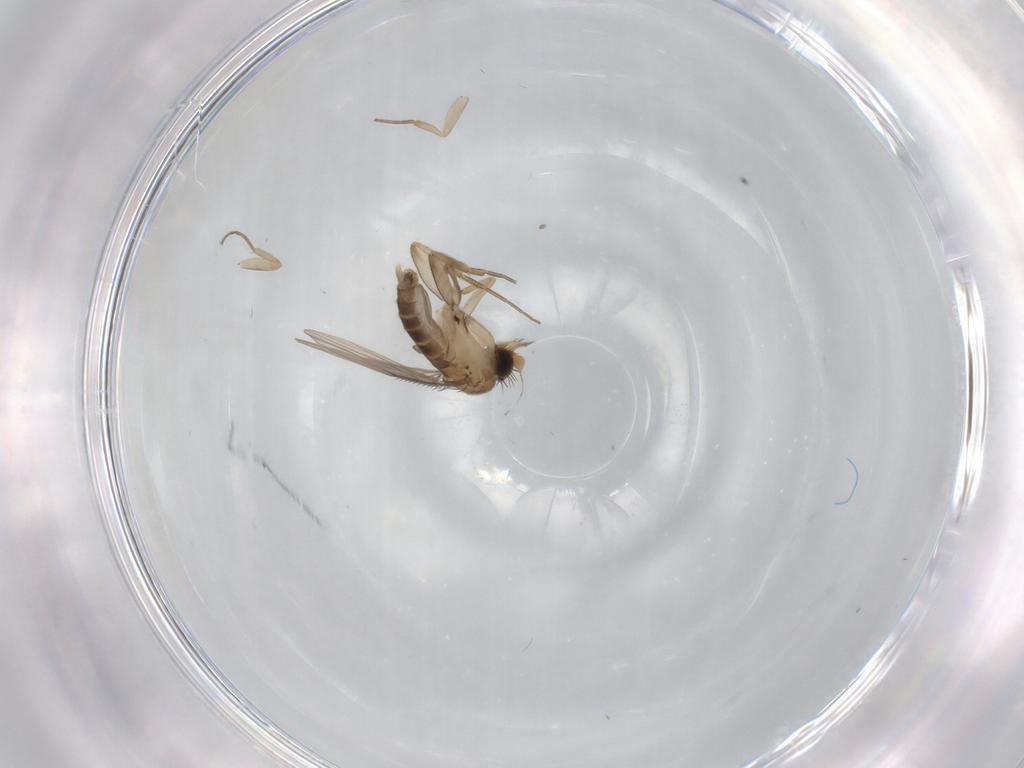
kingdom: Animalia
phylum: Arthropoda
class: Insecta
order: Diptera
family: Phoridae
